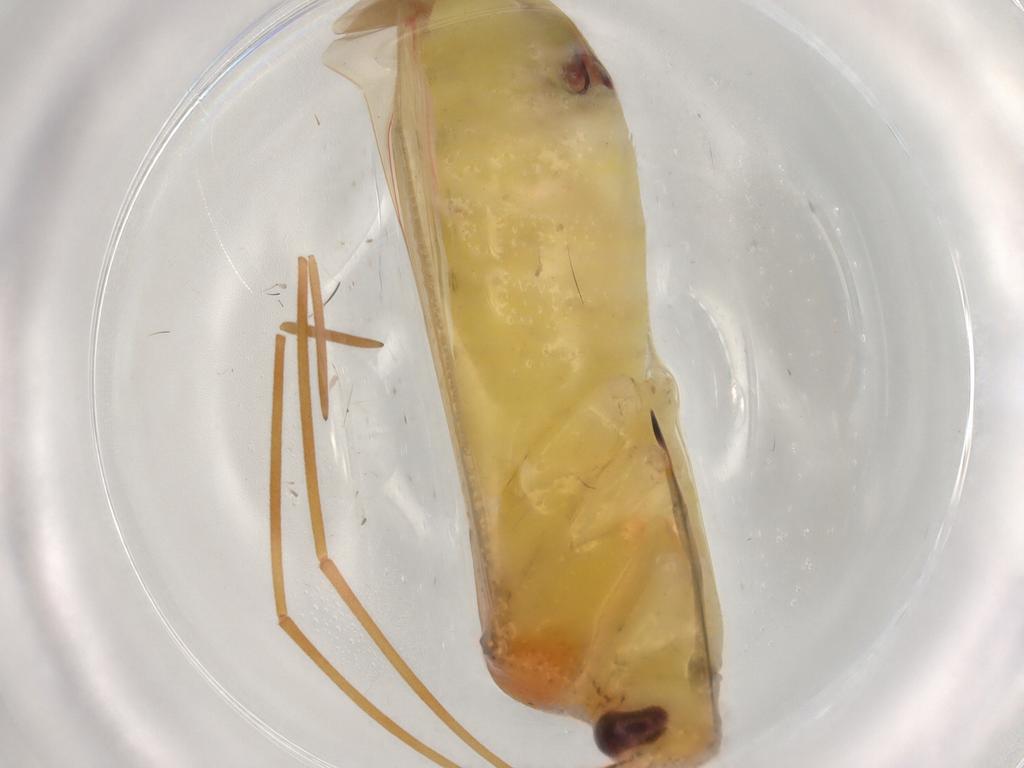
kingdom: Animalia
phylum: Arthropoda
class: Insecta
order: Hemiptera
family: Miridae
